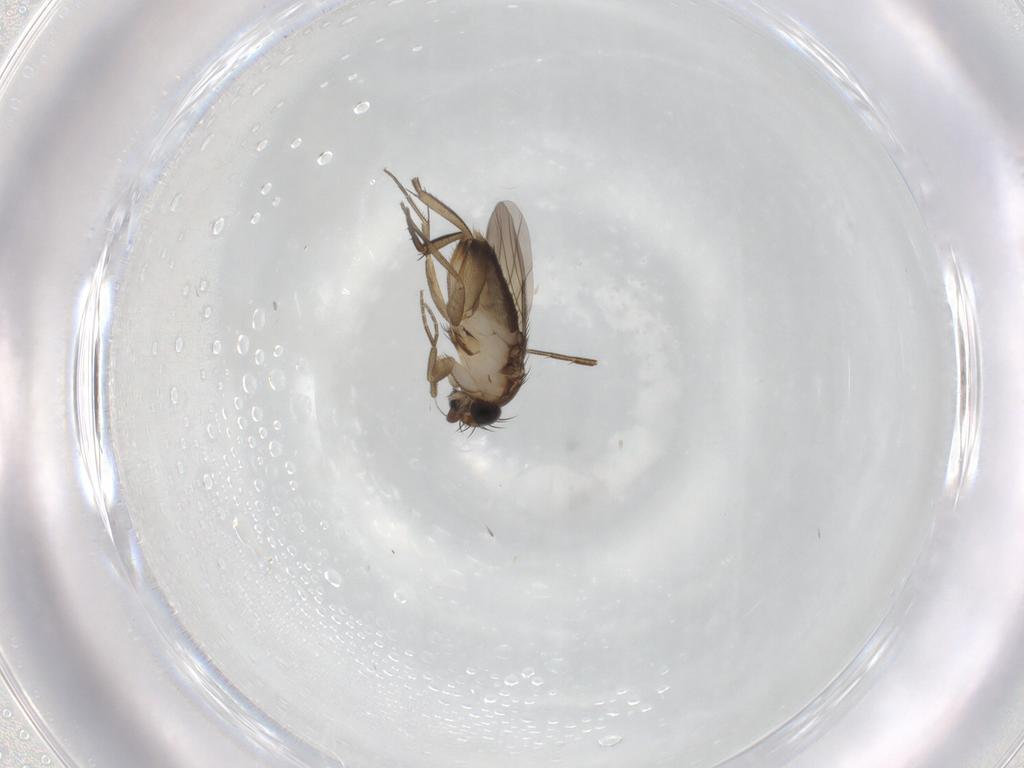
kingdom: Animalia
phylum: Arthropoda
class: Insecta
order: Diptera
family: Phoridae
